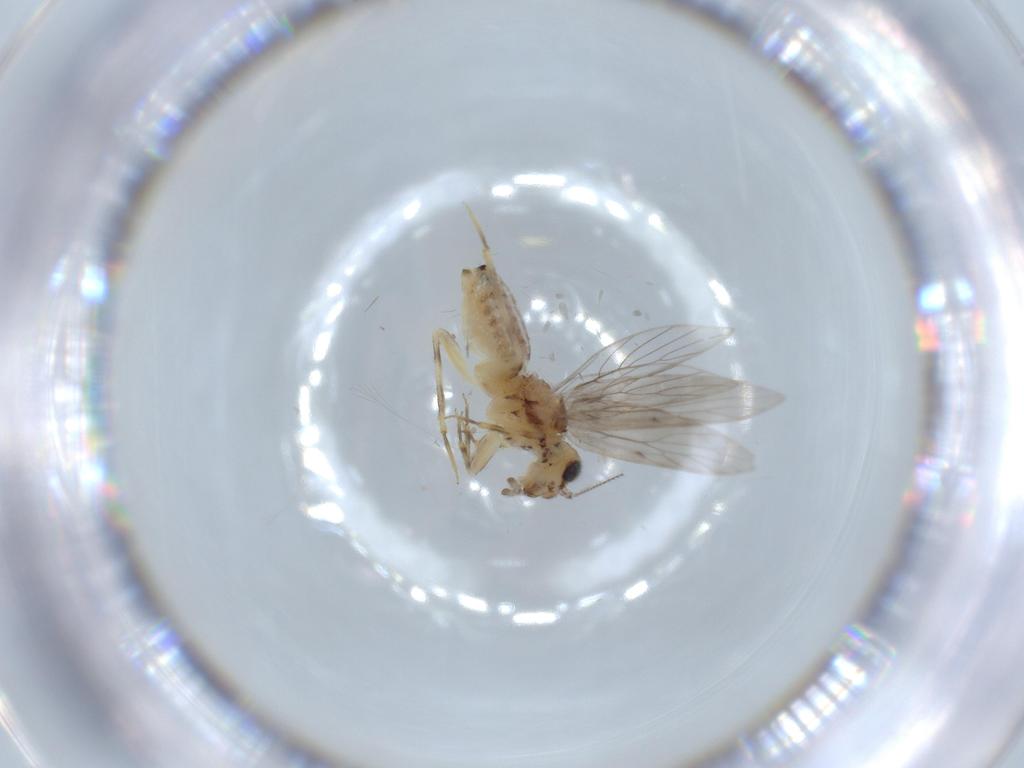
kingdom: Animalia
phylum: Arthropoda
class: Insecta
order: Psocodea
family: Lepidopsocidae
